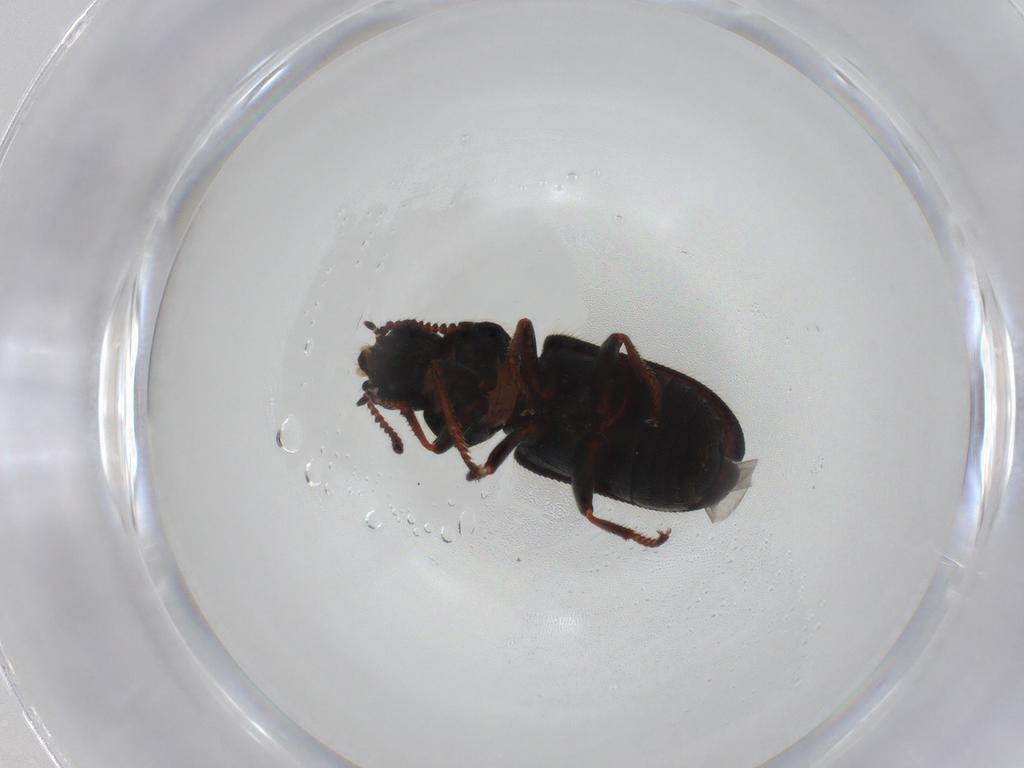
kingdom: Animalia
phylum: Arthropoda
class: Insecta
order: Coleoptera
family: Melyridae
